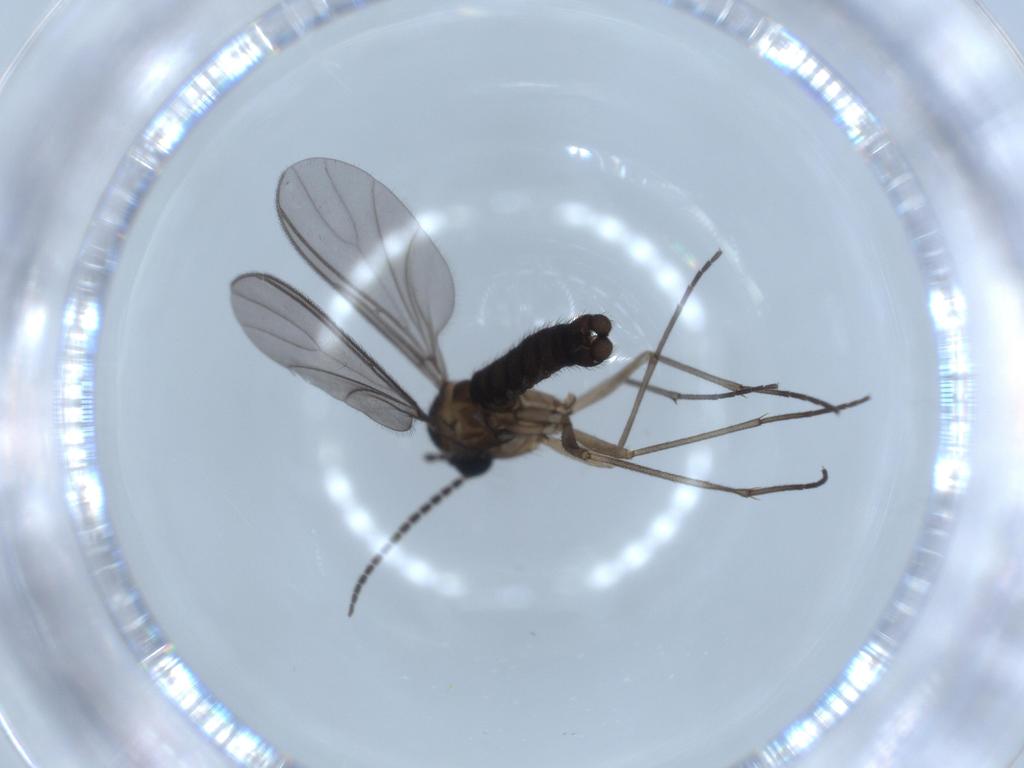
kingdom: Animalia
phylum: Arthropoda
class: Insecta
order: Diptera
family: Sciaridae
